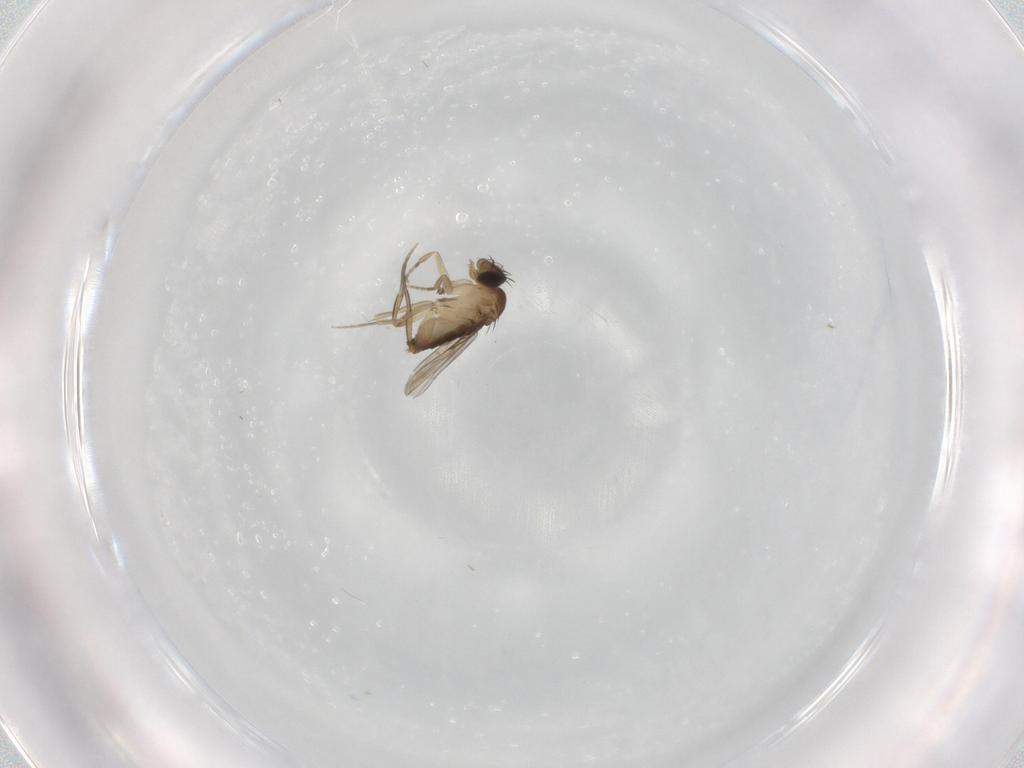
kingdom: Animalia
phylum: Arthropoda
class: Insecta
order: Diptera
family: Phoridae
